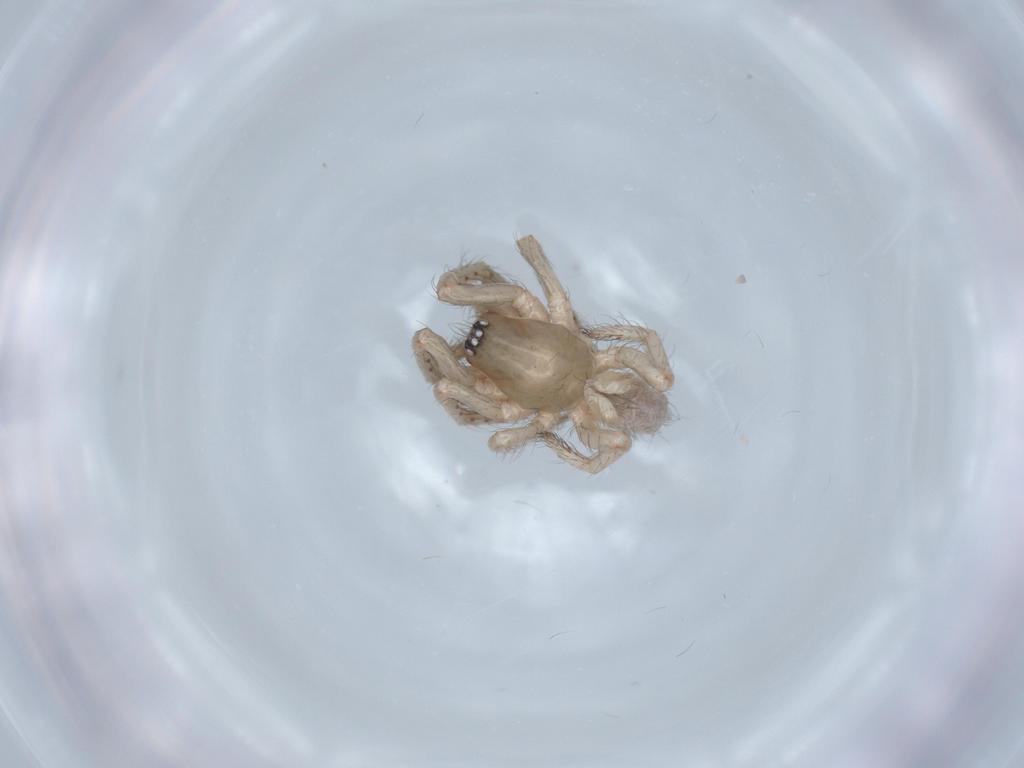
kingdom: Animalia
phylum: Arthropoda
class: Arachnida
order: Araneae
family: Segestriidae
